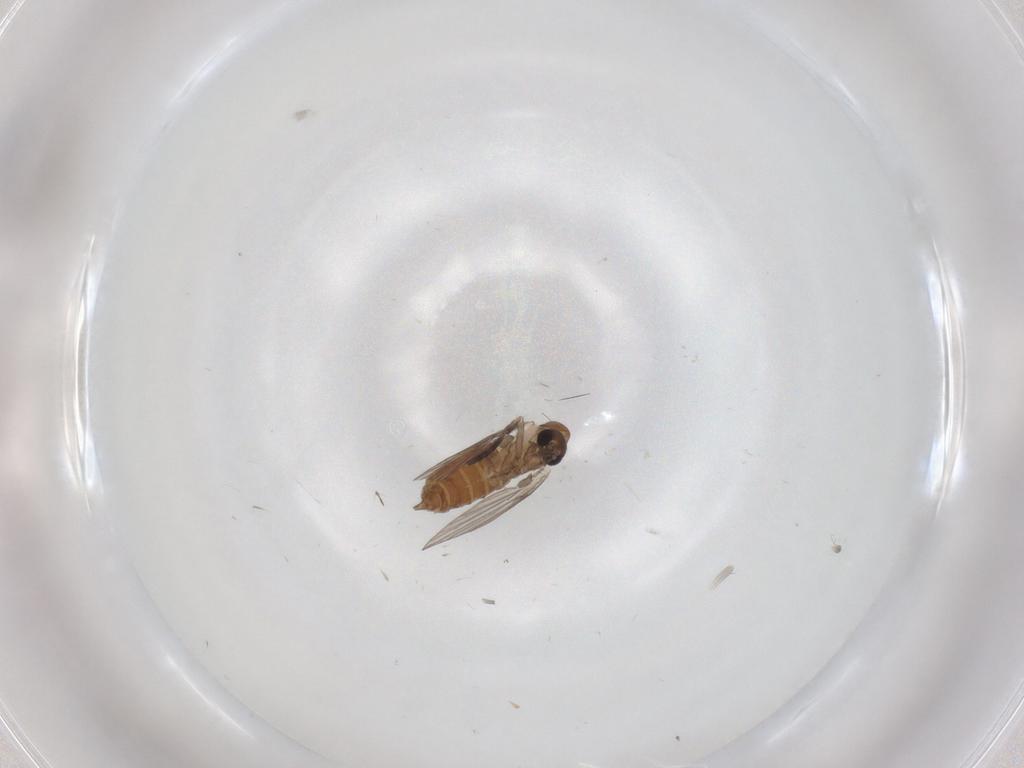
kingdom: Animalia
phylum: Arthropoda
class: Insecta
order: Diptera
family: Psychodidae
